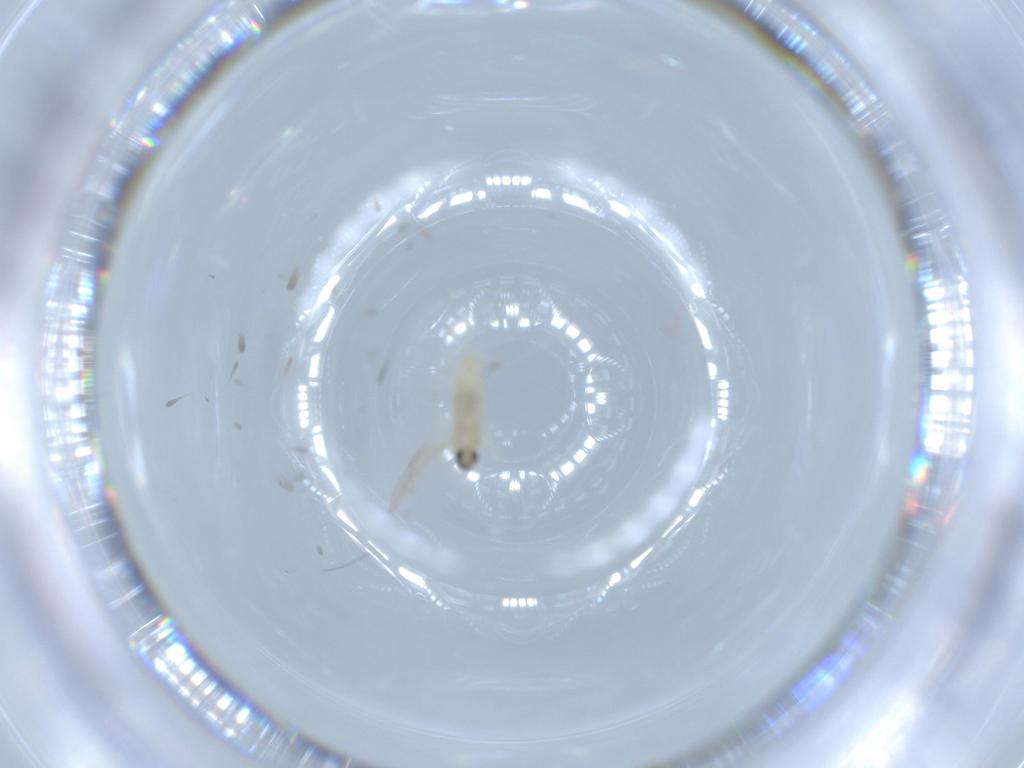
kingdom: Animalia
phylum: Arthropoda
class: Insecta
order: Diptera
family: Cecidomyiidae
